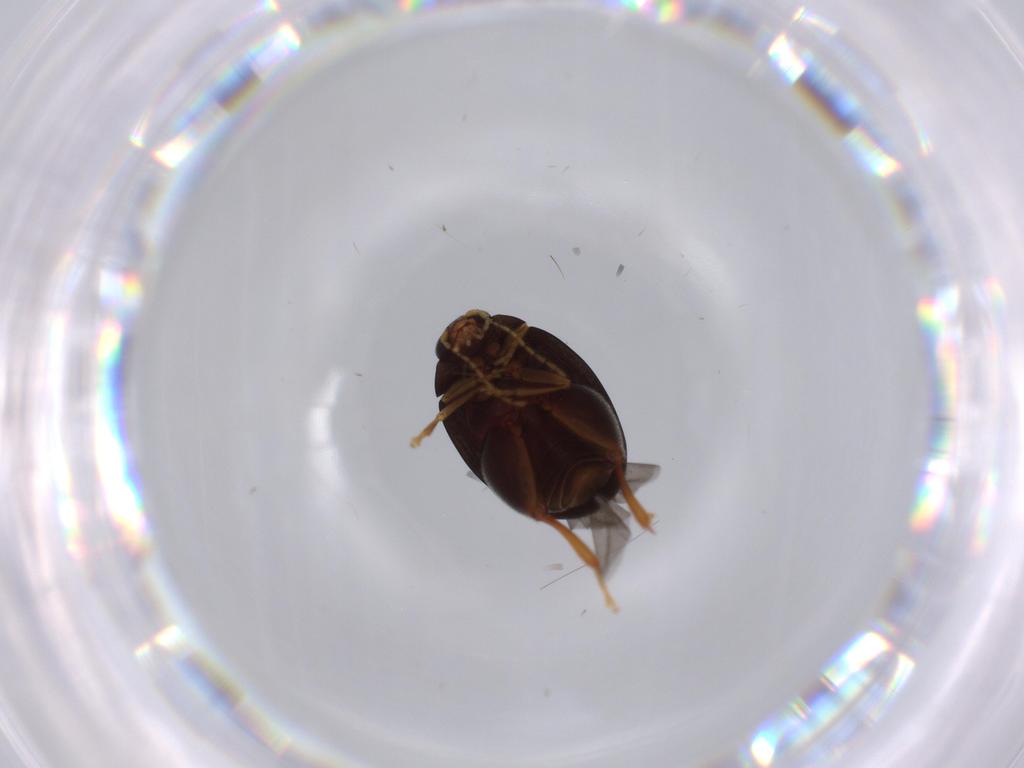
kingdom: Animalia
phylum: Arthropoda
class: Insecta
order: Coleoptera
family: Chrysomelidae
